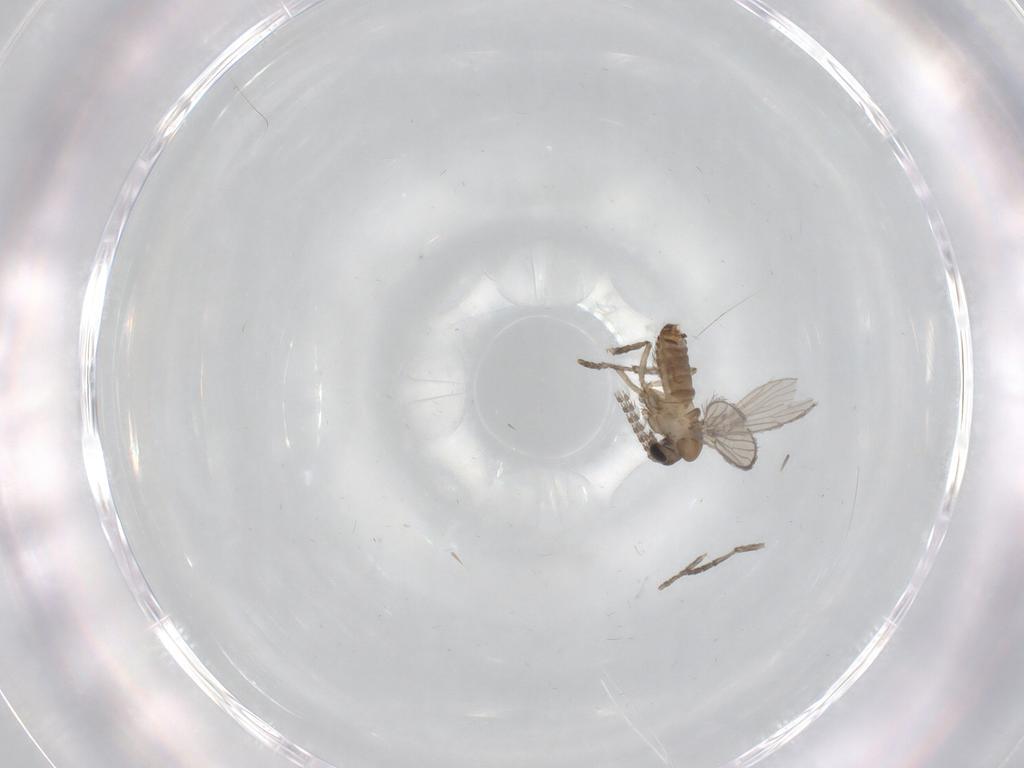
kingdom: Animalia
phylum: Arthropoda
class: Insecta
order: Diptera
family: Psychodidae
